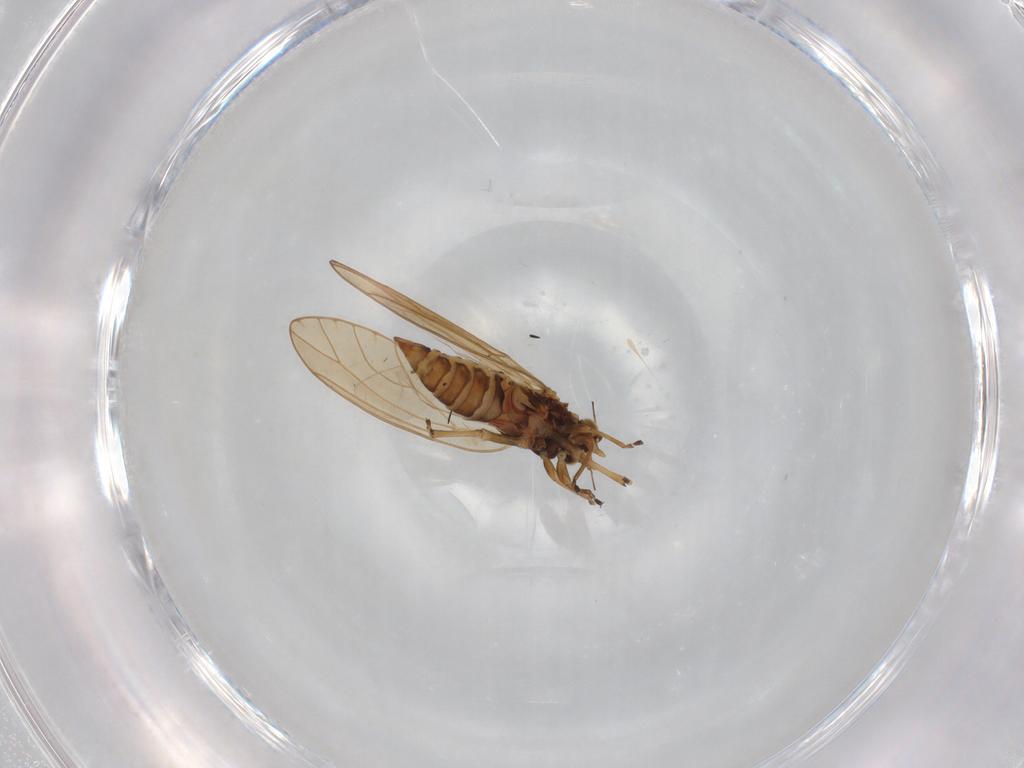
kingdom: Animalia
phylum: Arthropoda
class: Insecta
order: Hemiptera
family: Triozidae
